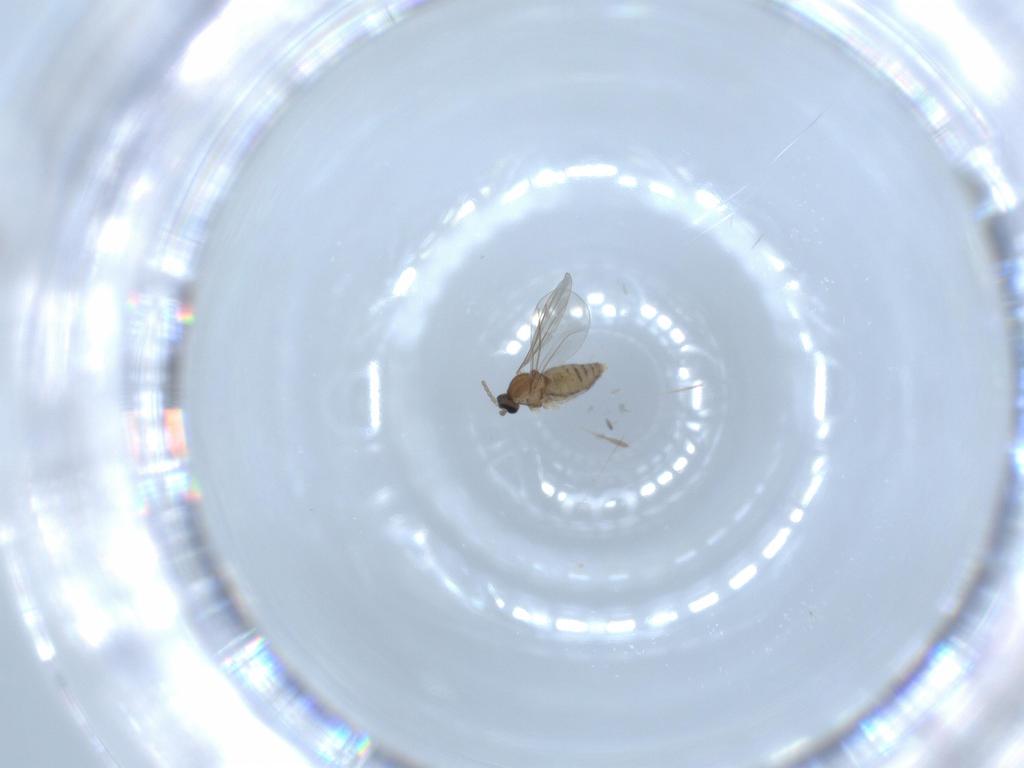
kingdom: Animalia
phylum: Arthropoda
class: Insecta
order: Diptera
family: Cecidomyiidae
